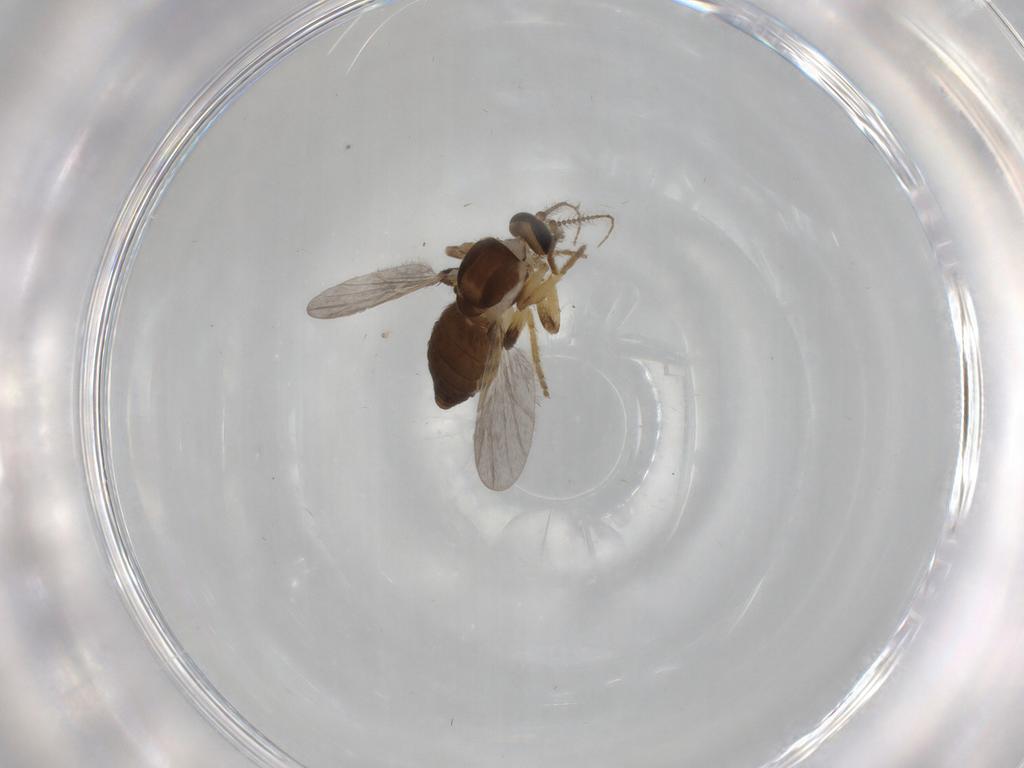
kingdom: Animalia
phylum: Arthropoda
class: Insecta
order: Diptera
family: Ceratopogonidae
